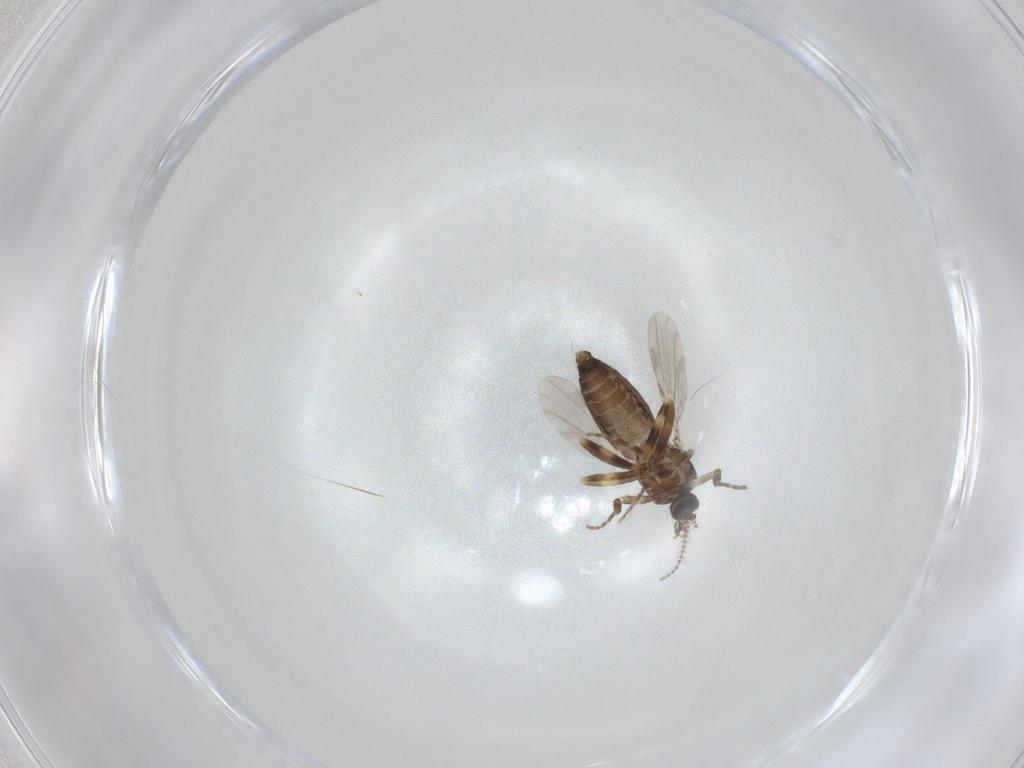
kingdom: Animalia
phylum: Arthropoda
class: Insecta
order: Diptera
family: Ceratopogonidae
